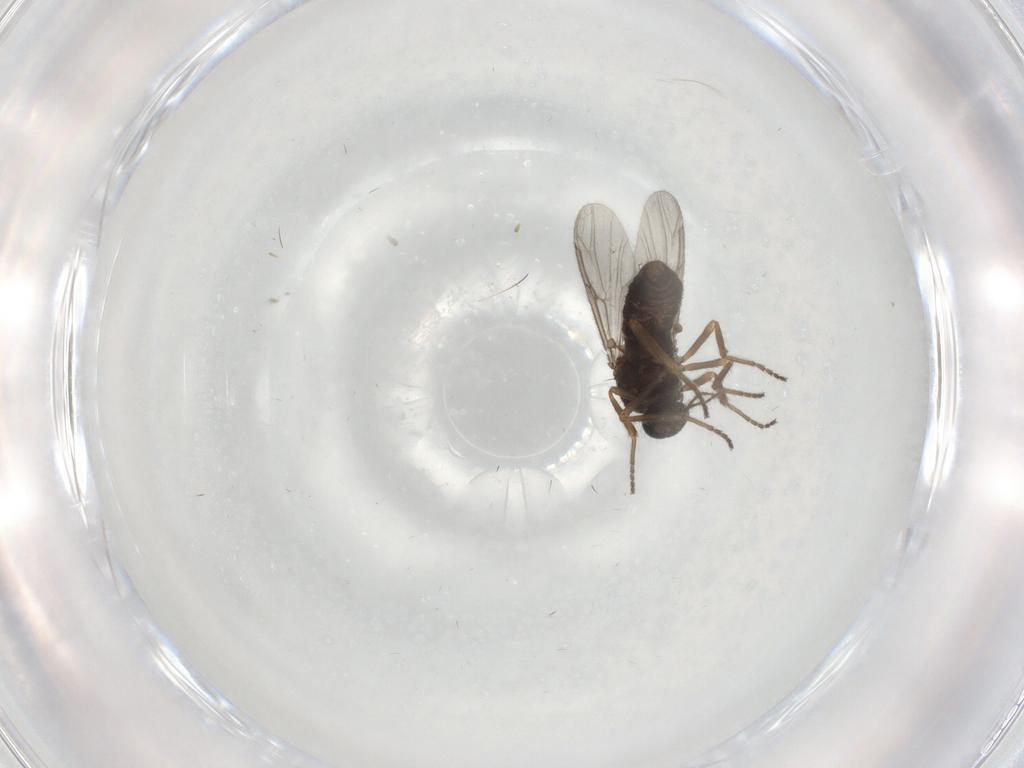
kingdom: Animalia
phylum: Arthropoda
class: Insecta
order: Diptera
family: Ceratopogonidae
